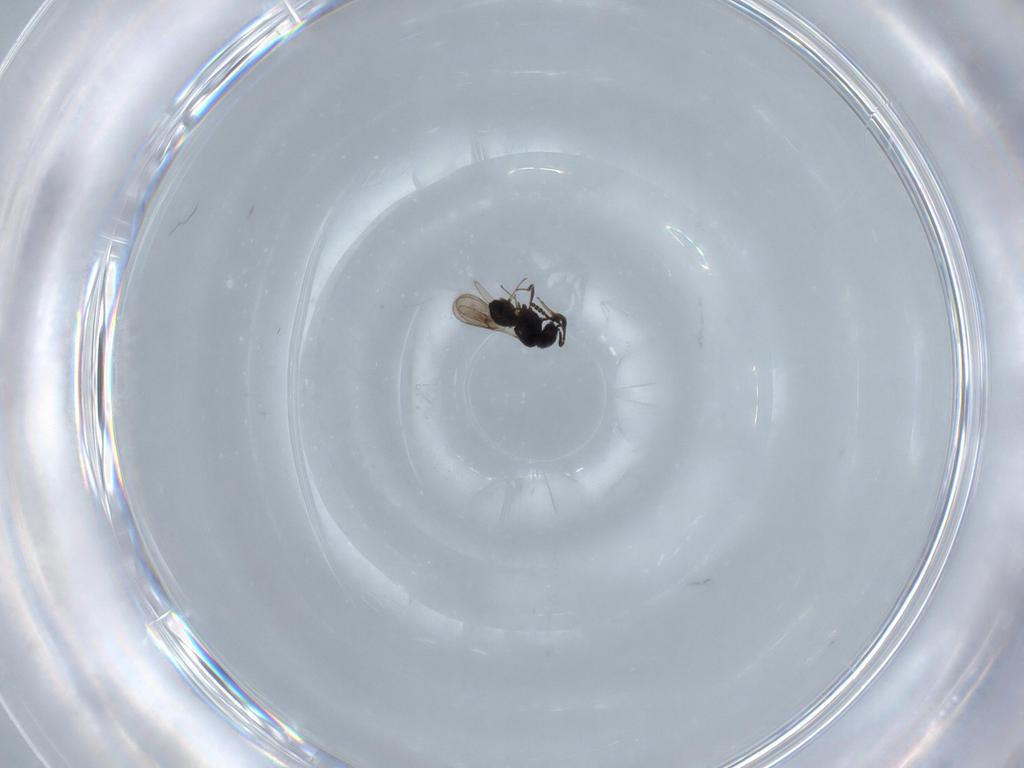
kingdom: Animalia
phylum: Arthropoda
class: Insecta
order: Hymenoptera
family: Scelionidae
